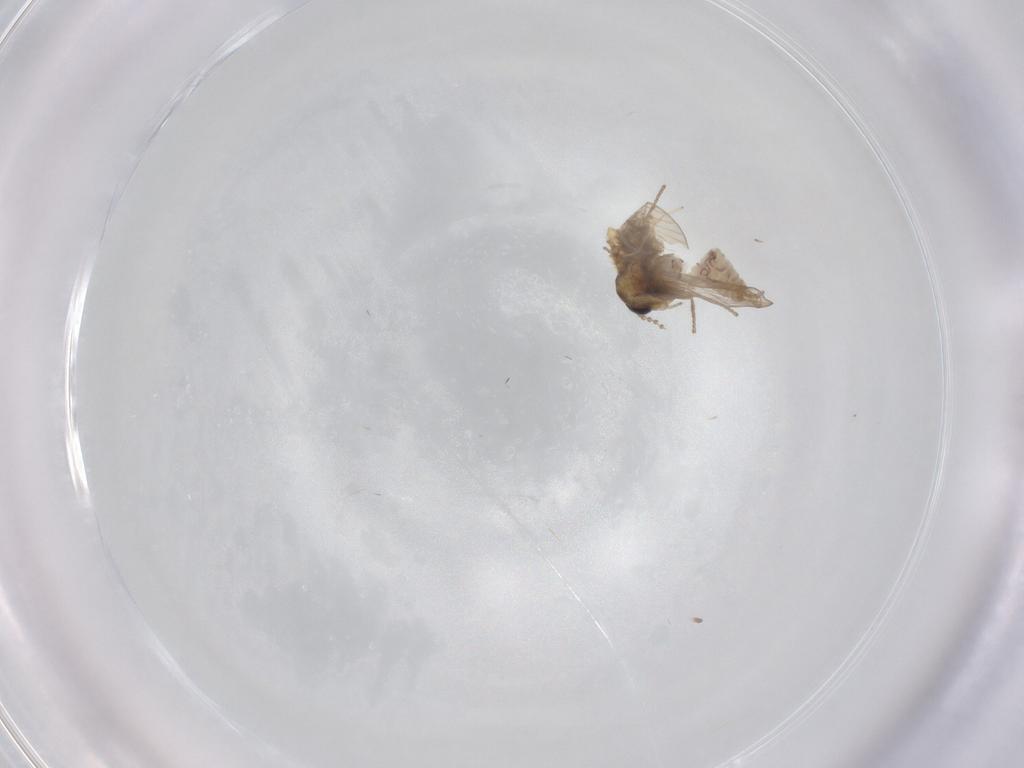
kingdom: Animalia
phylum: Arthropoda
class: Insecta
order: Diptera
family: Psychodidae
